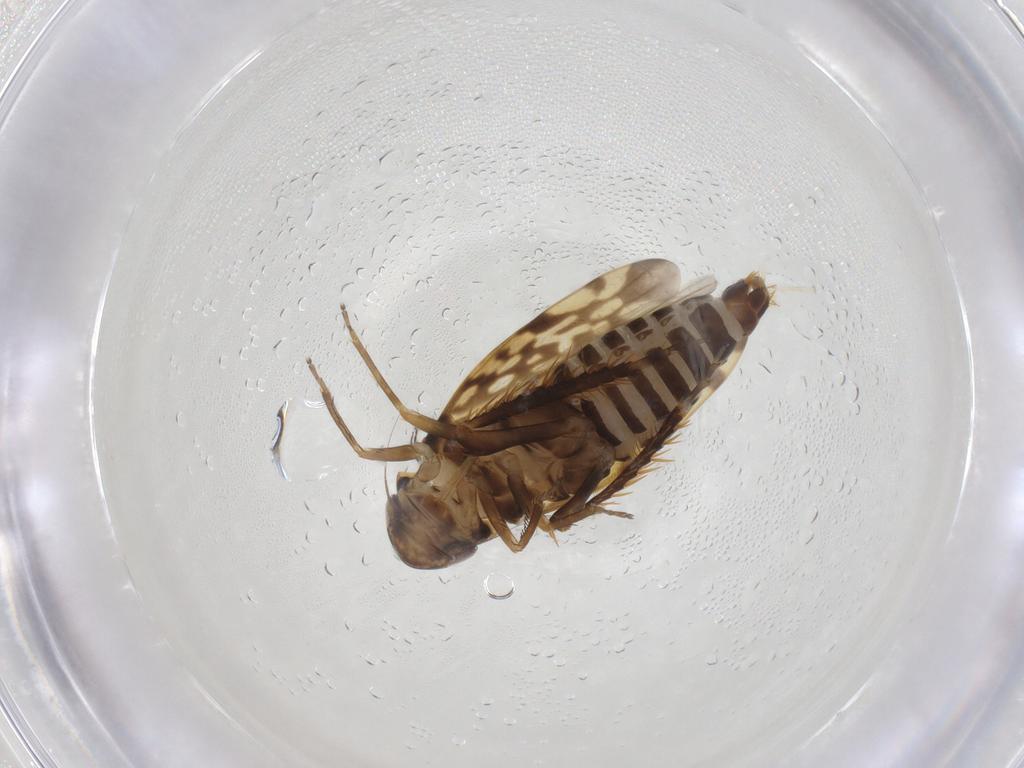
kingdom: Animalia
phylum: Arthropoda
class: Insecta
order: Hemiptera
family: Cicadellidae
